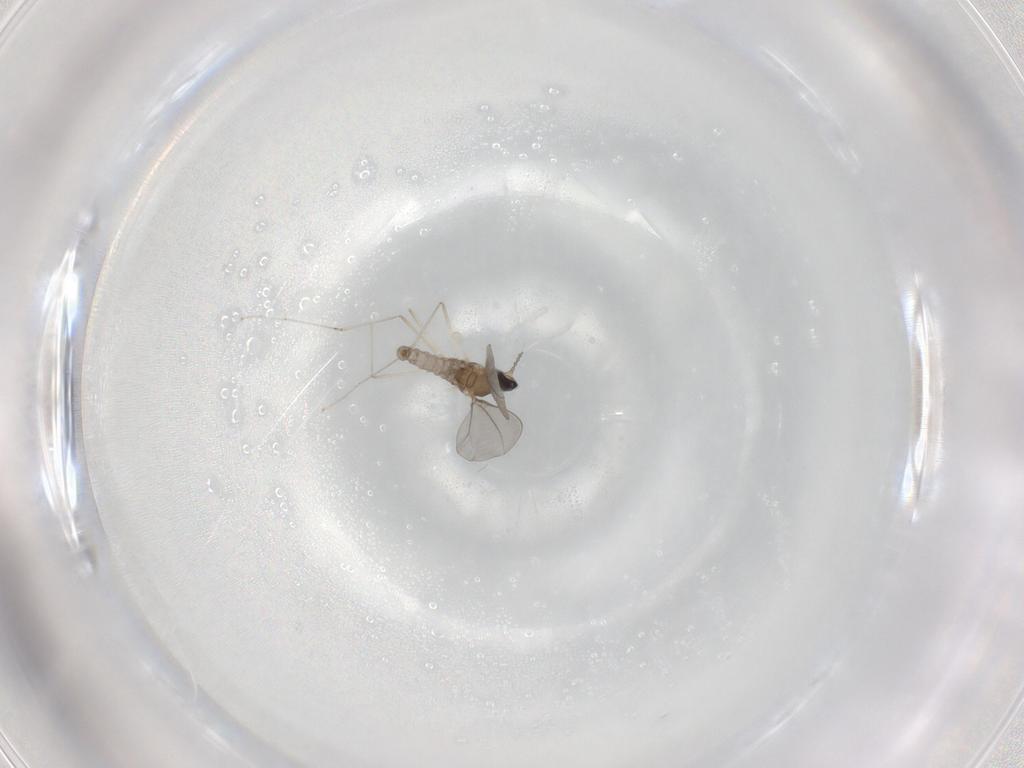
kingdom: Animalia
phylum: Arthropoda
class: Insecta
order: Diptera
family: Cecidomyiidae
